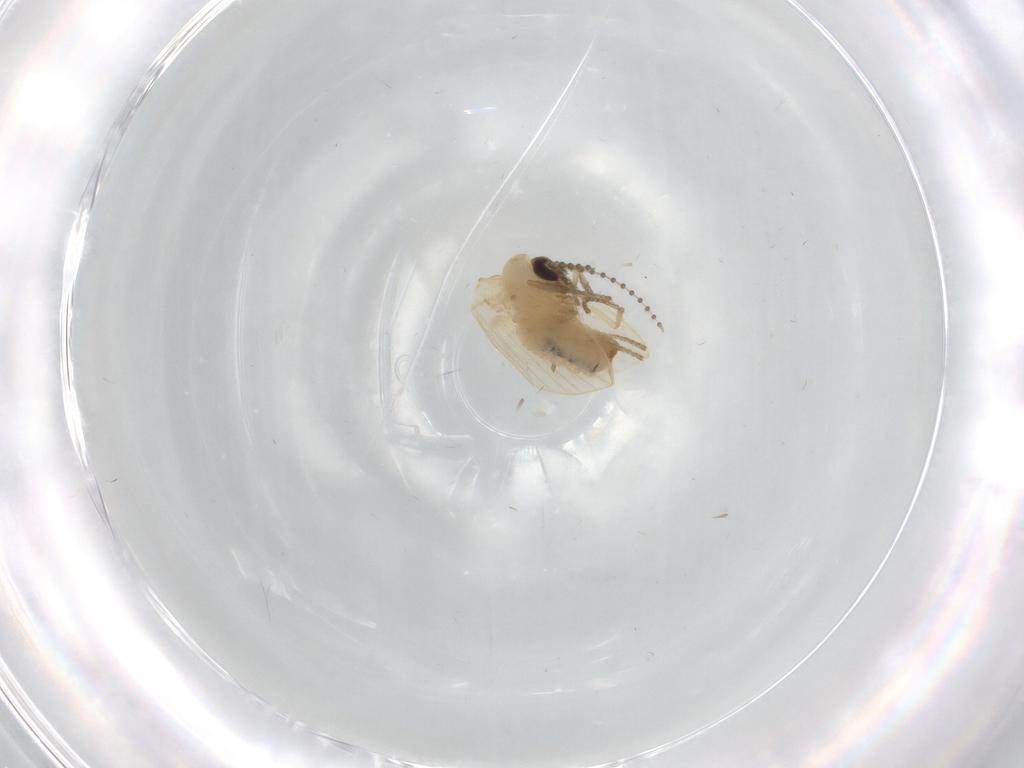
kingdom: Animalia
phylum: Arthropoda
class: Insecta
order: Diptera
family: Psychodidae
